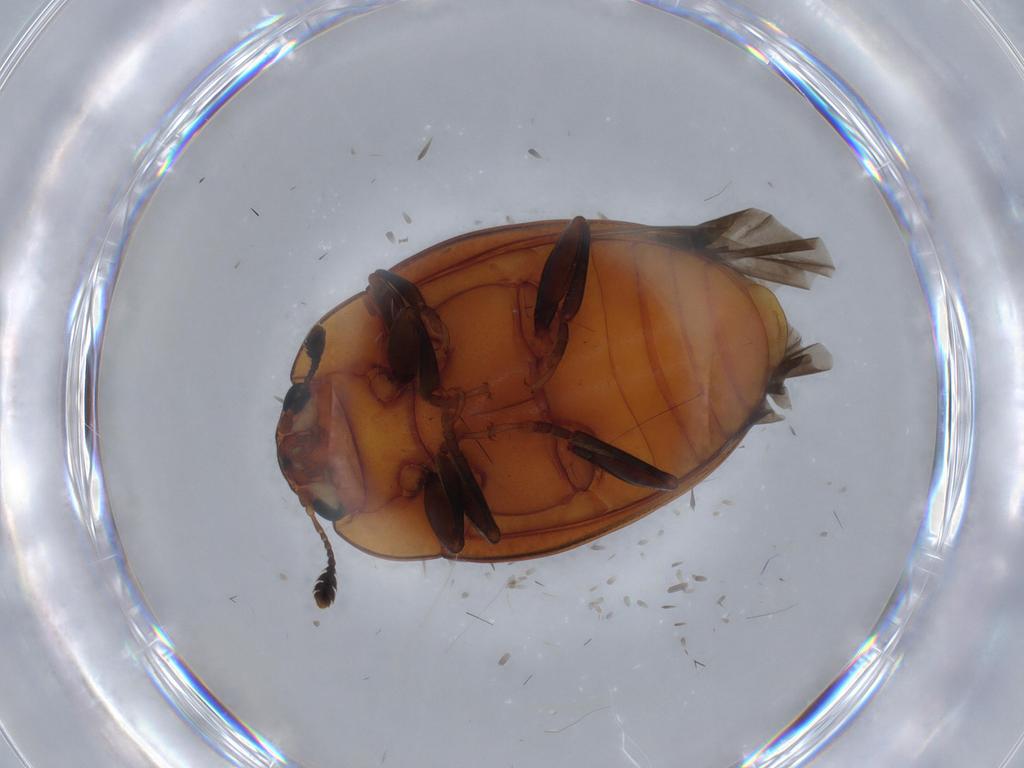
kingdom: Animalia
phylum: Arthropoda
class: Insecta
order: Coleoptera
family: Erotylidae
